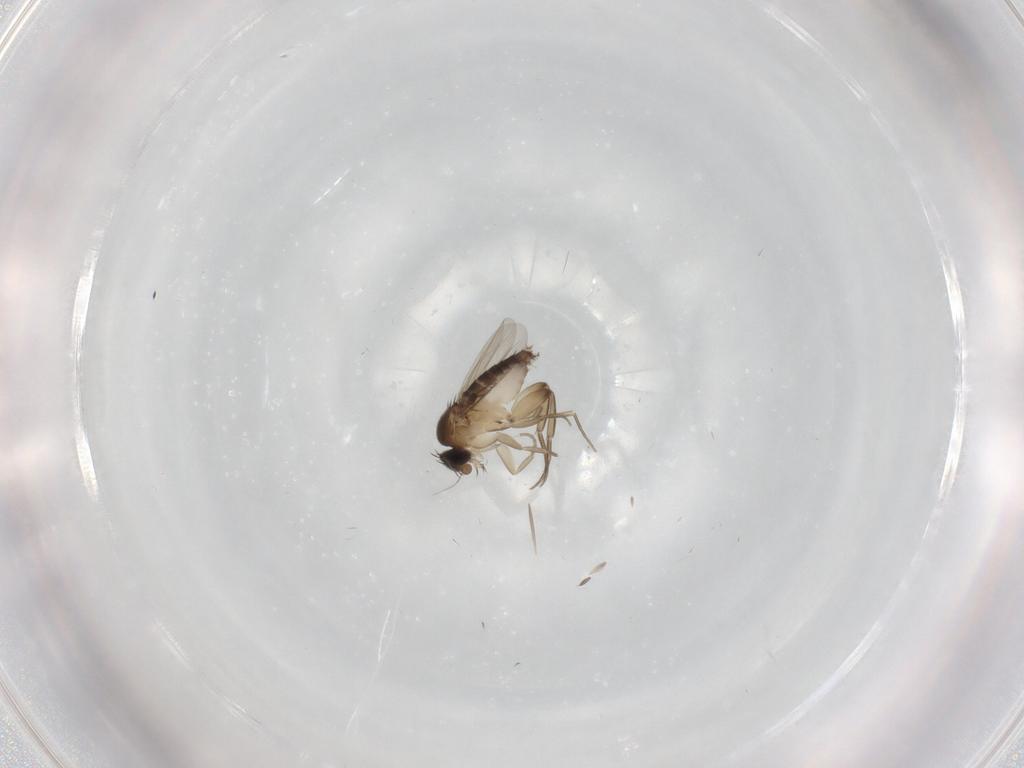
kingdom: Animalia
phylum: Arthropoda
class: Insecta
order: Diptera
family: Phoridae
